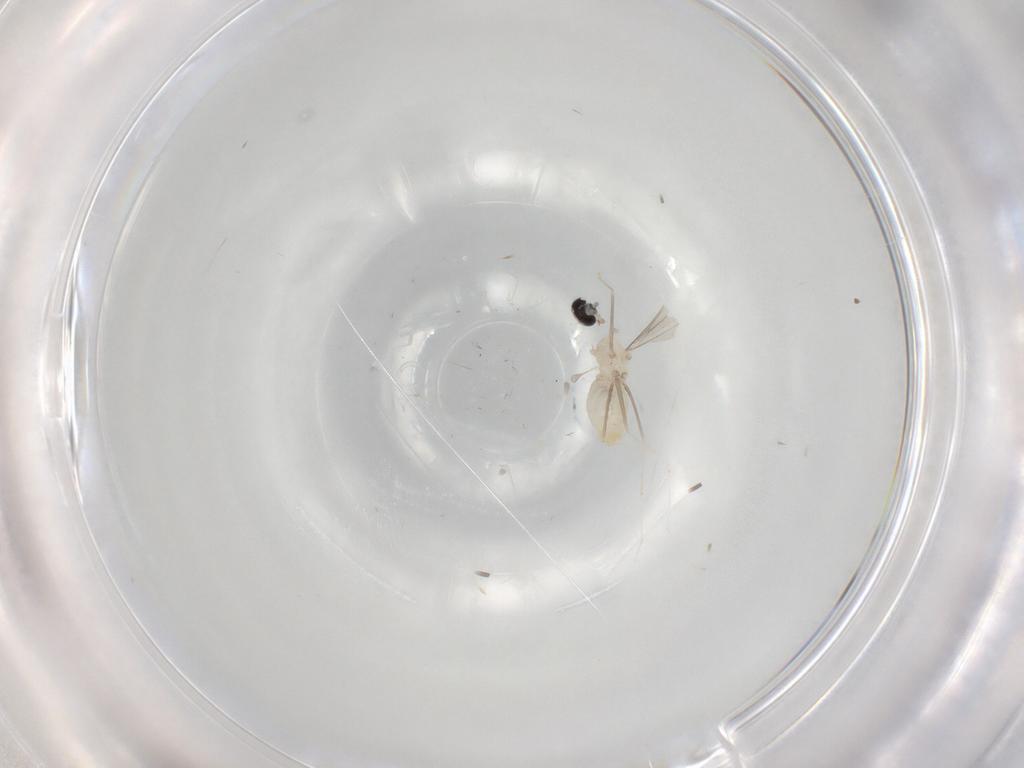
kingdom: Animalia
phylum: Arthropoda
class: Insecta
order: Diptera
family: Cecidomyiidae
